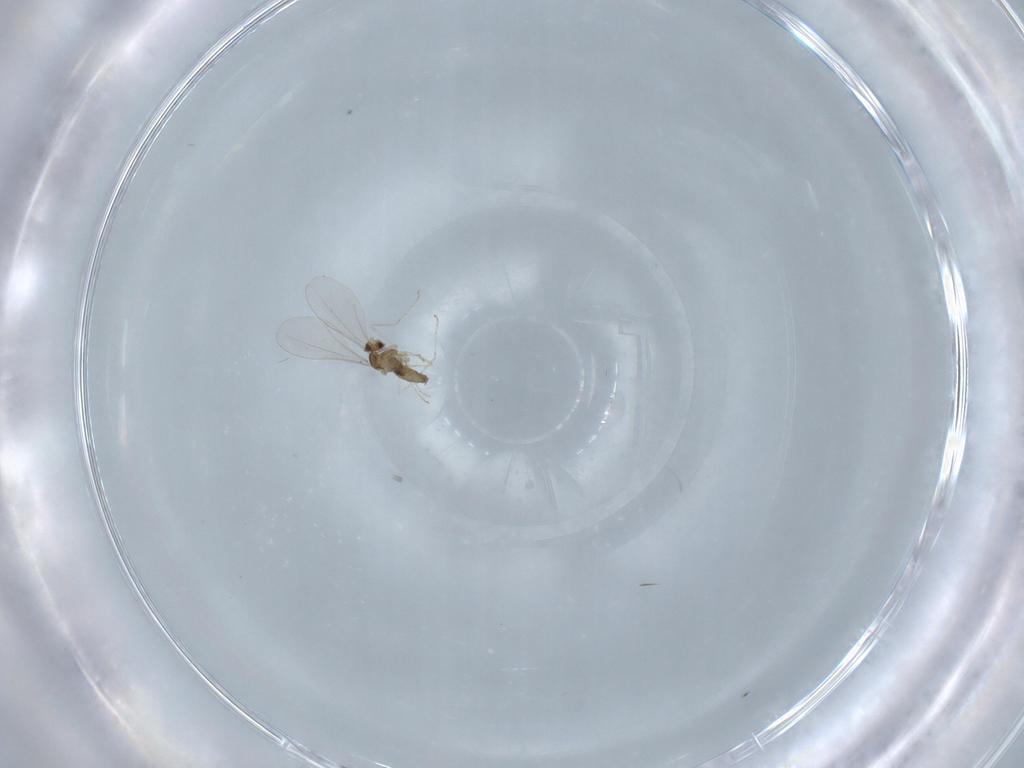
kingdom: Animalia
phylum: Arthropoda
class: Insecta
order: Diptera
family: Cecidomyiidae
